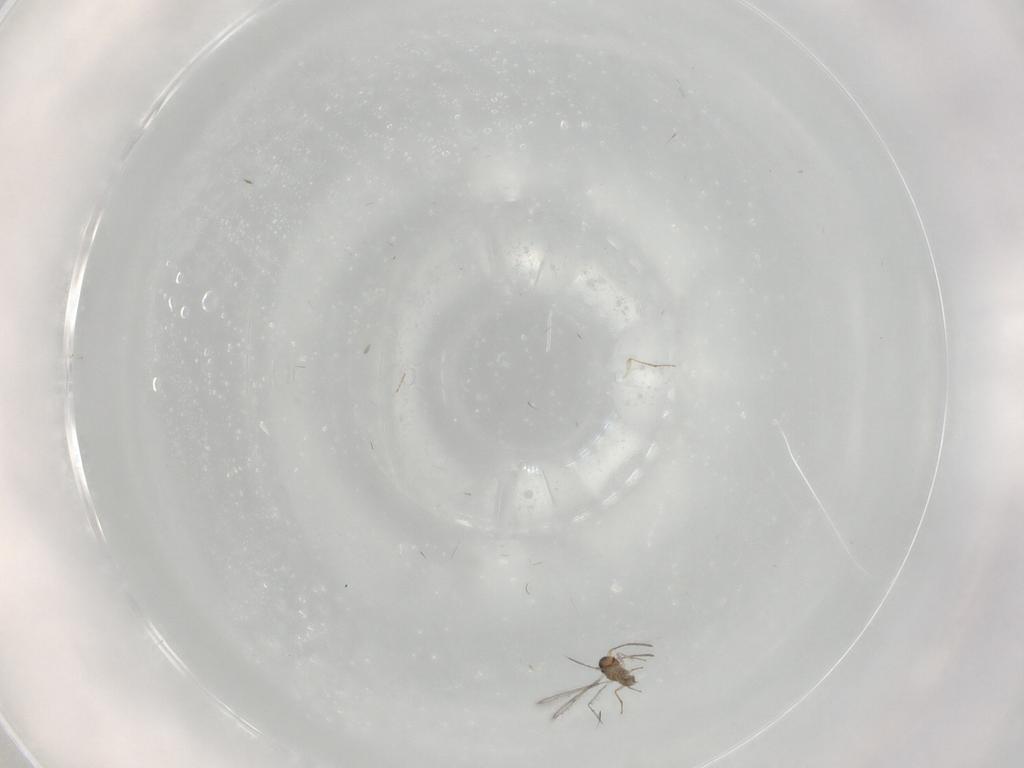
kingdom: Animalia
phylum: Arthropoda
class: Insecta
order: Hymenoptera
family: Mymaridae
